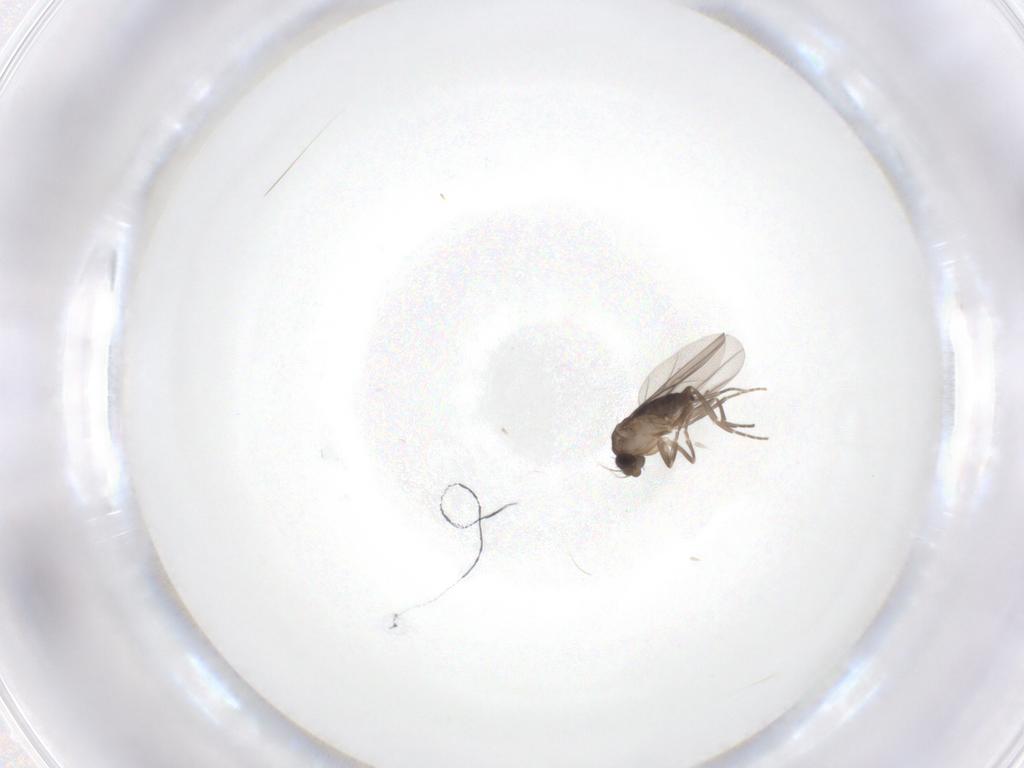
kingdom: Animalia
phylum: Arthropoda
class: Insecta
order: Diptera
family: Phoridae
